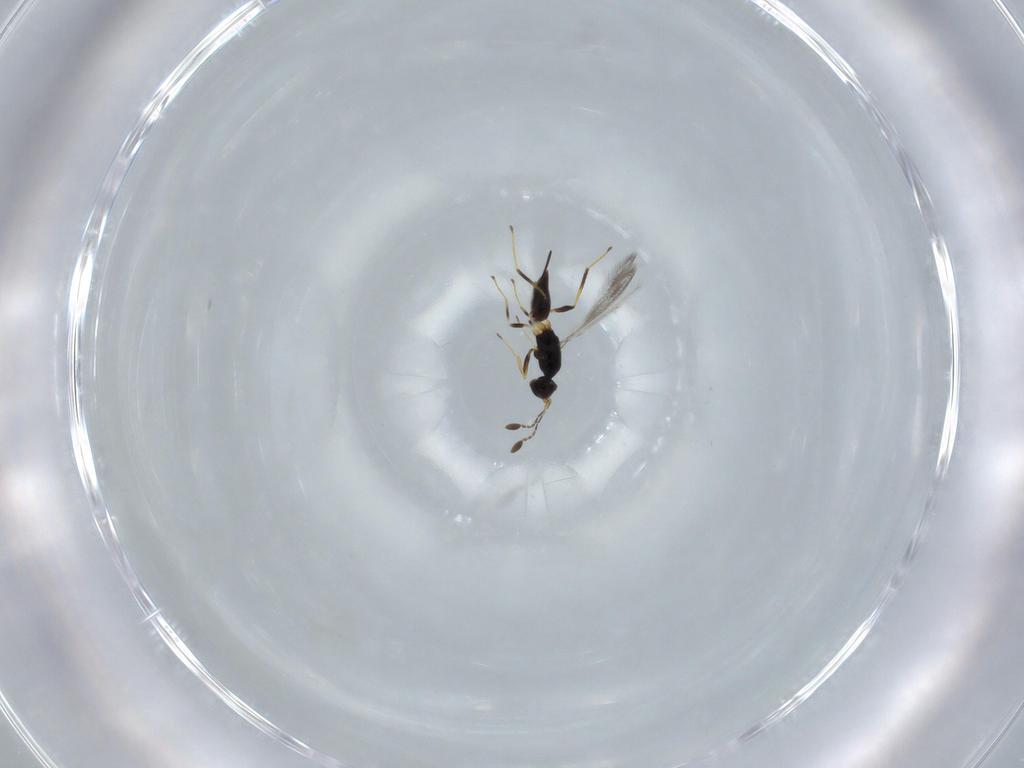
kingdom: Animalia
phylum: Arthropoda
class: Insecta
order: Hymenoptera
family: Mymaridae
